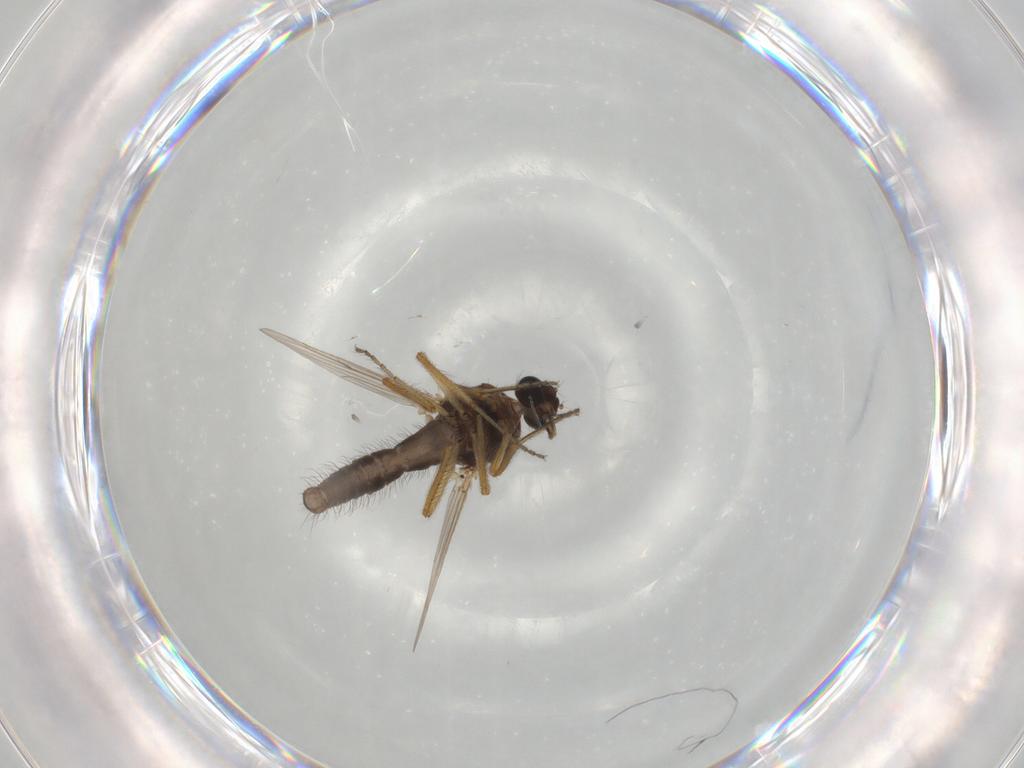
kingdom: Animalia
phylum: Arthropoda
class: Insecta
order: Diptera
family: Ceratopogonidae
